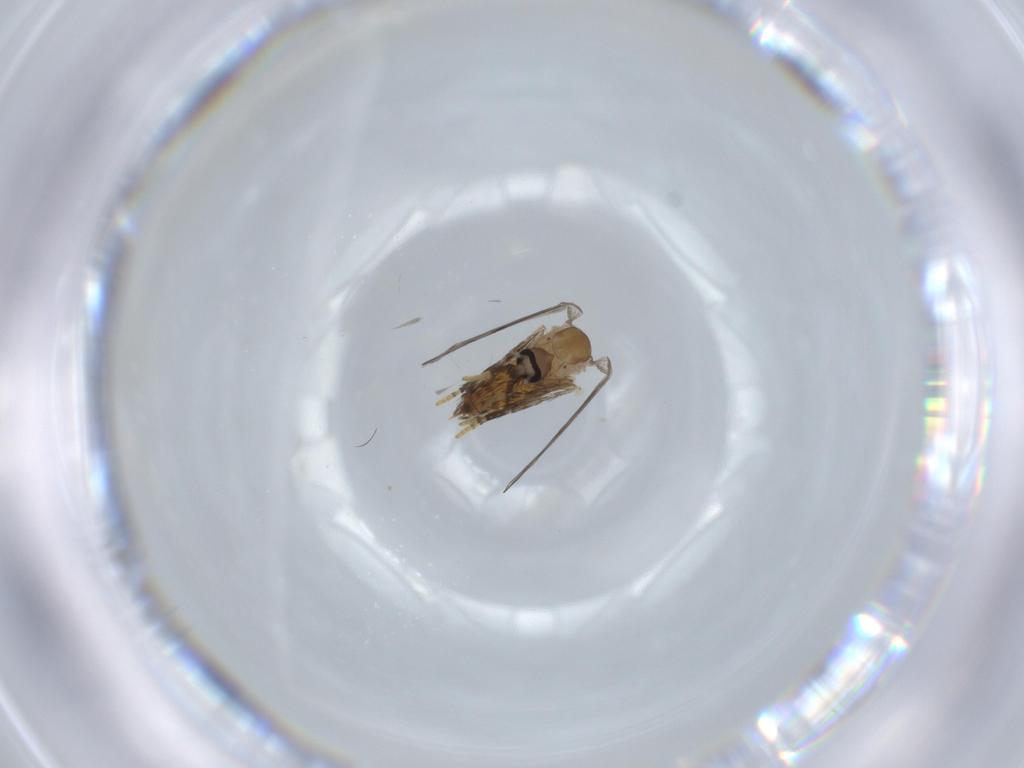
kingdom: Animalia
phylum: Arthropoda
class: Insecta
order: Diptera
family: Psychodidae
